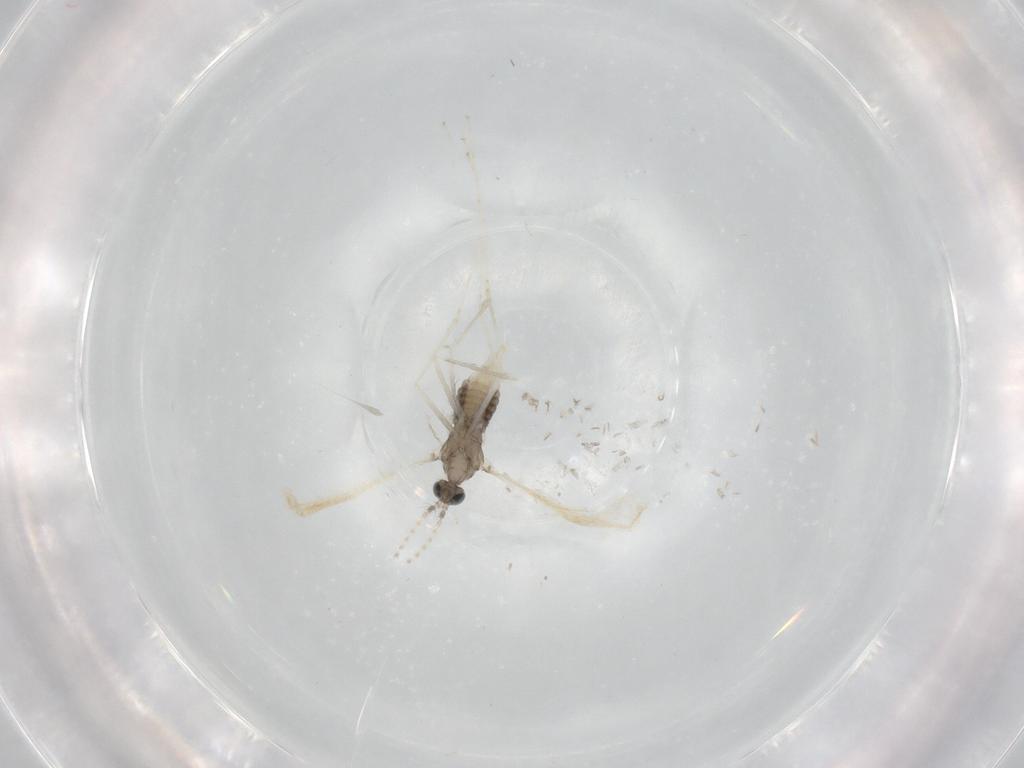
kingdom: Animalia
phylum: Arthropoda
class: Insecta
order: Diptera
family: Cecidomyiidae
